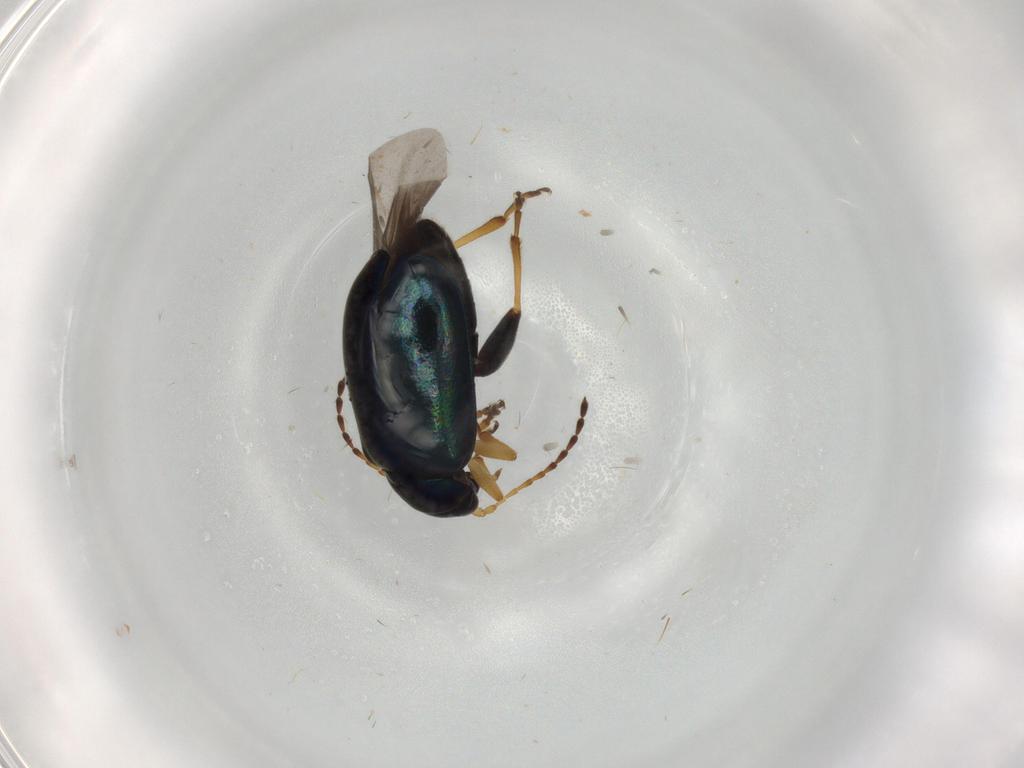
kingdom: Animalia
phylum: Arthropoda
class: Insecta
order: Coleoptera
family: Chrysomelidae
